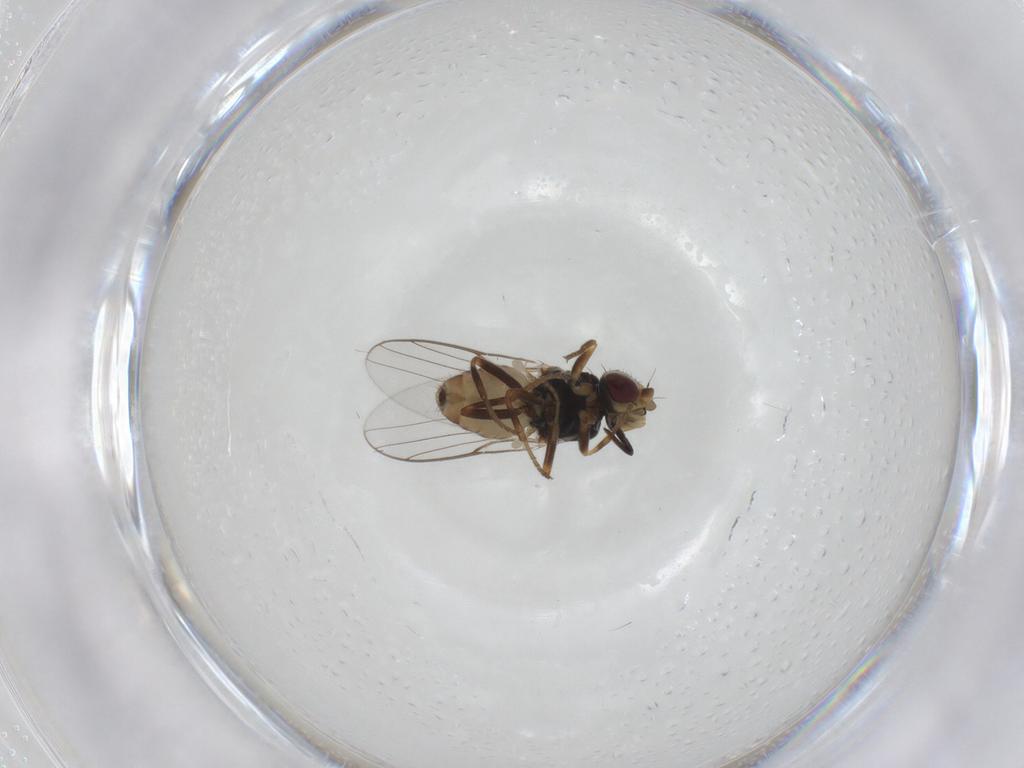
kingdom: Animalia
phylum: Arthropoda
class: Insecta
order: Diptera
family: Chloropidae
